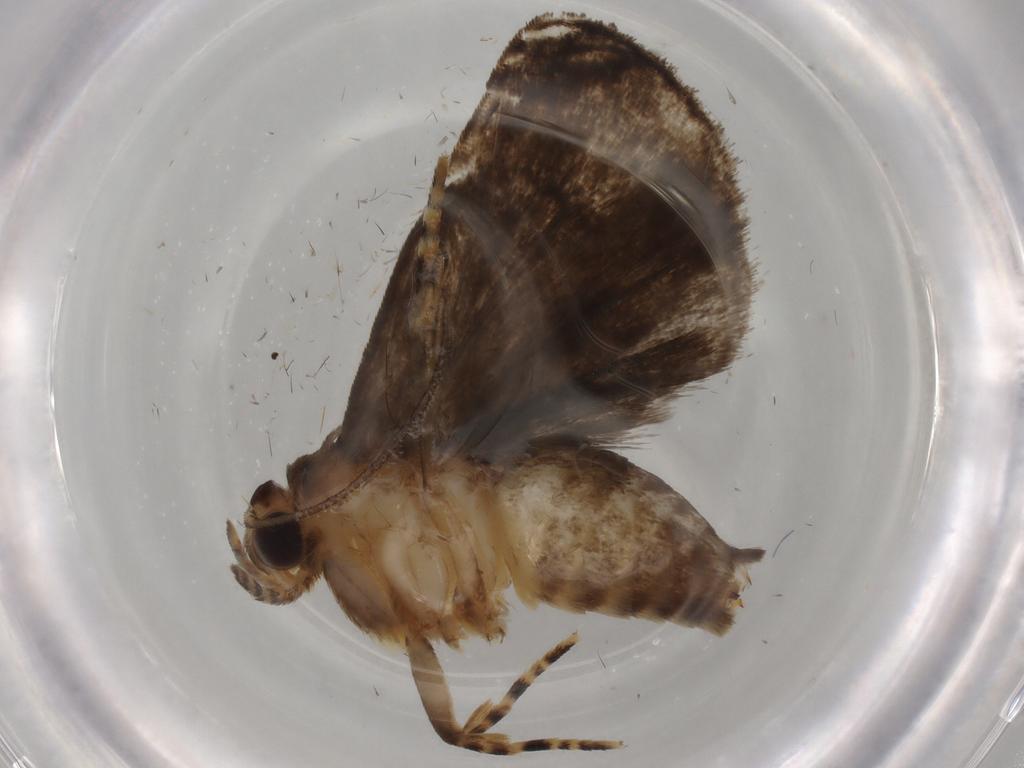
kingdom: Animalia
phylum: Arthropoda
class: Insecta
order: Lepidoptera
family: Immidae
